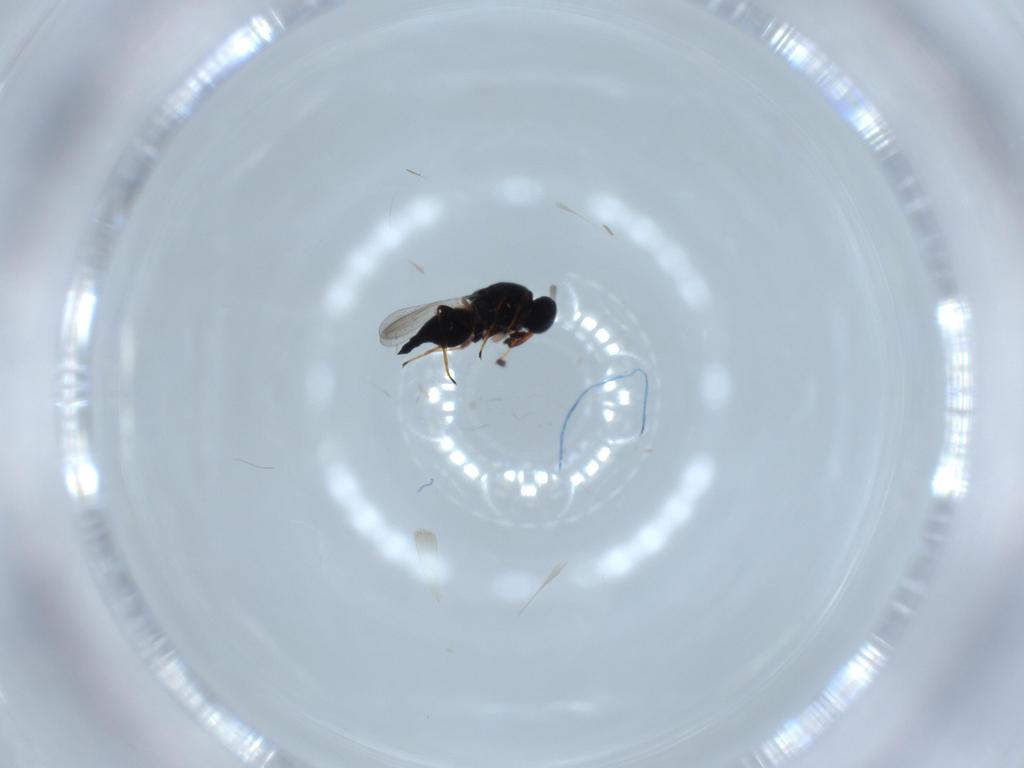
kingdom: Animalia
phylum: Arthropoda
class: Insecta
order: Hymenoptera
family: Platygastridae
